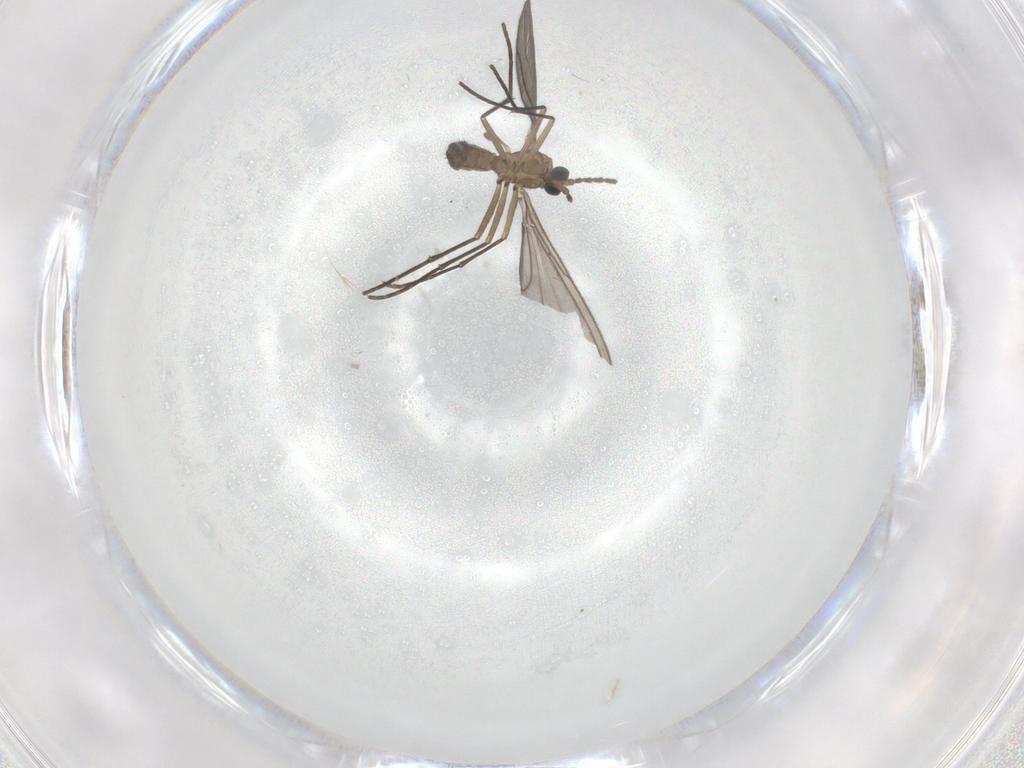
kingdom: Animalia
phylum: Arthropoda
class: Insecta
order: Diptera
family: Sciaridae
